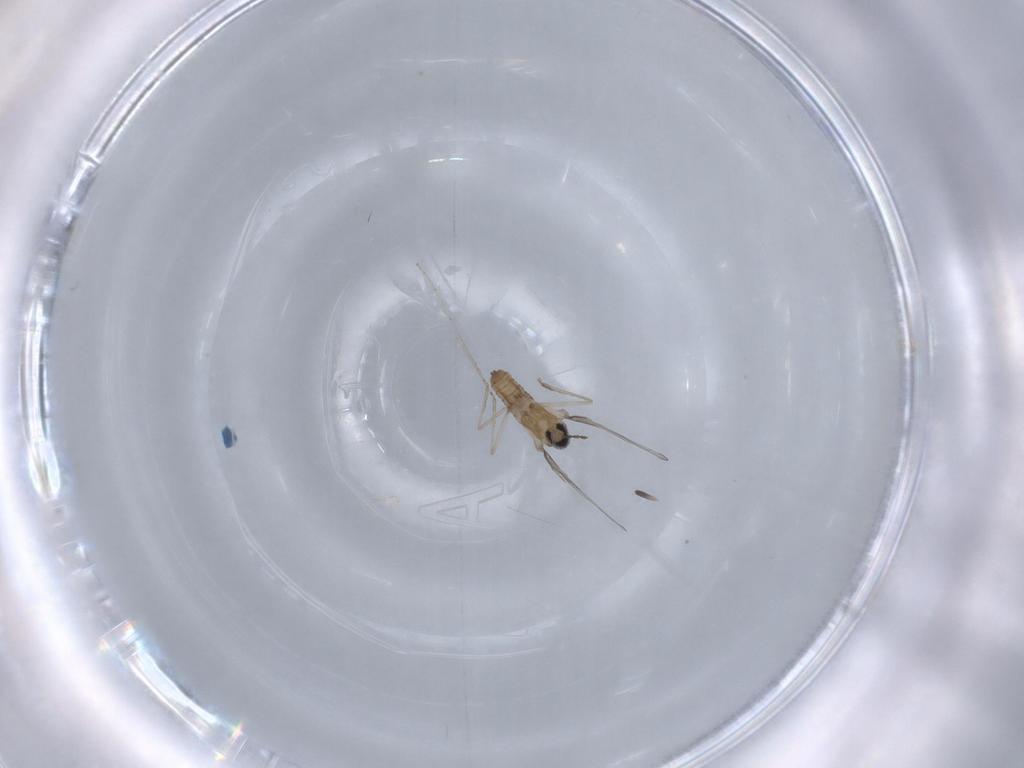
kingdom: Animalia
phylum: Arthropoda
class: Insecta
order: Diptera
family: Cecidomyiidae
